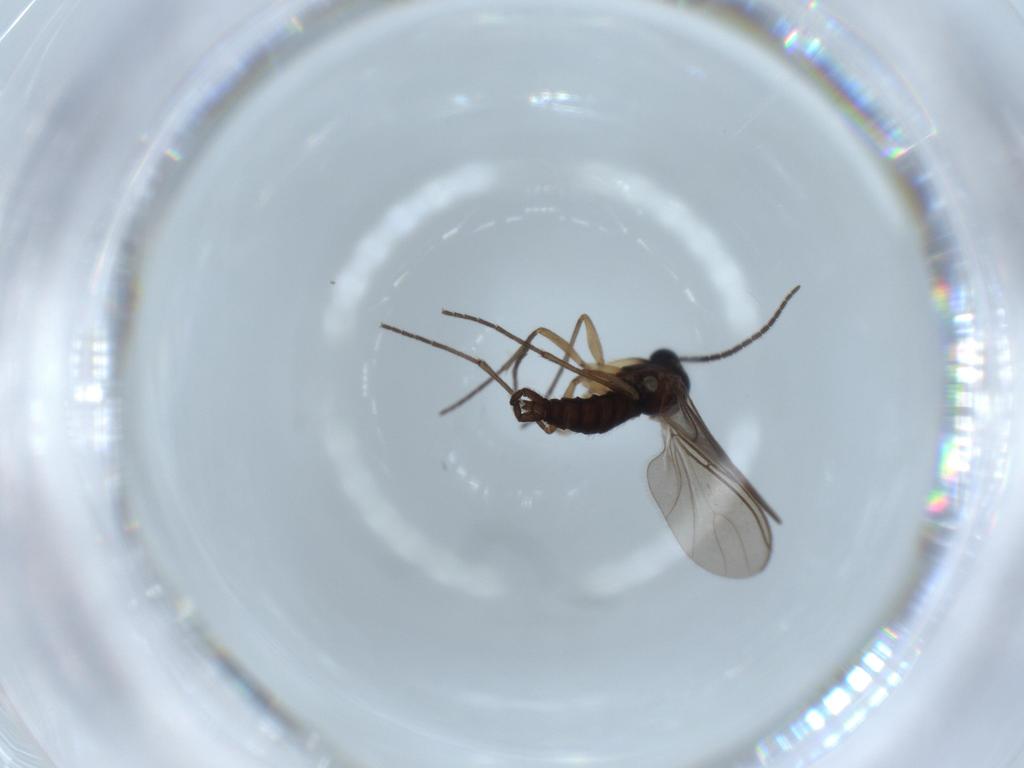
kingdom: Animalia
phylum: Arthropoda
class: Insecta
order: Diptera
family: Sciaridae
